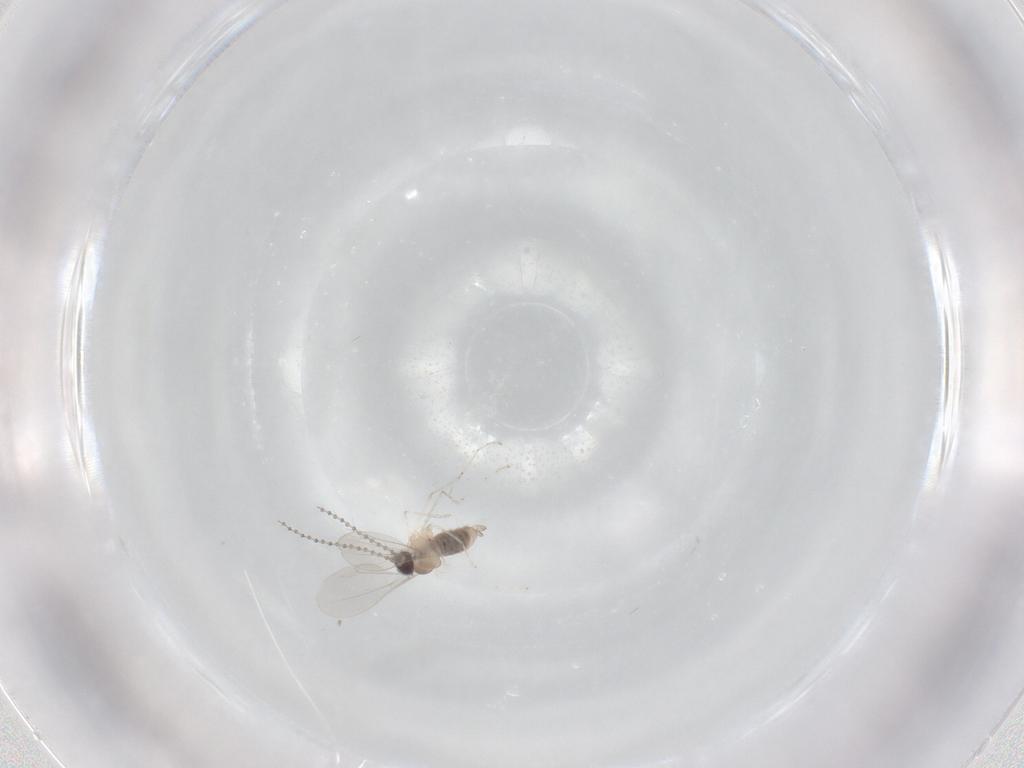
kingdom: Animalia
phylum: Arthropoda
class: Insecta
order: Diptera
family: Cecidomyiidae
